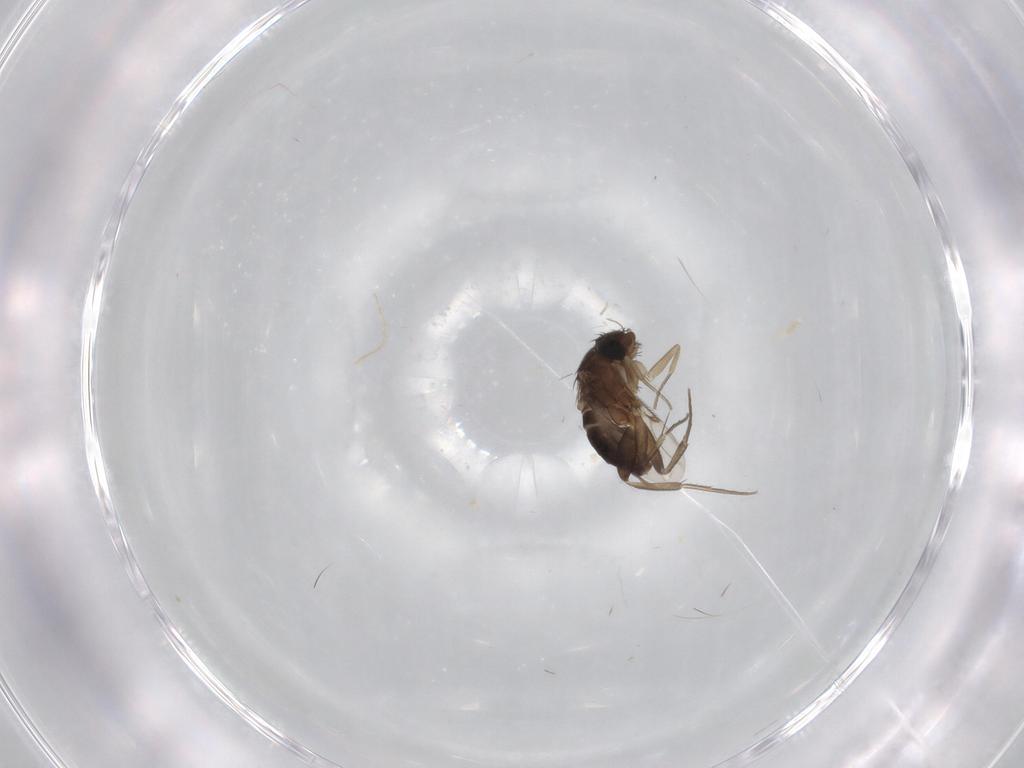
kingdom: Animalia
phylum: Arthropoda
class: Insecta
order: Diptera
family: Phoridae
